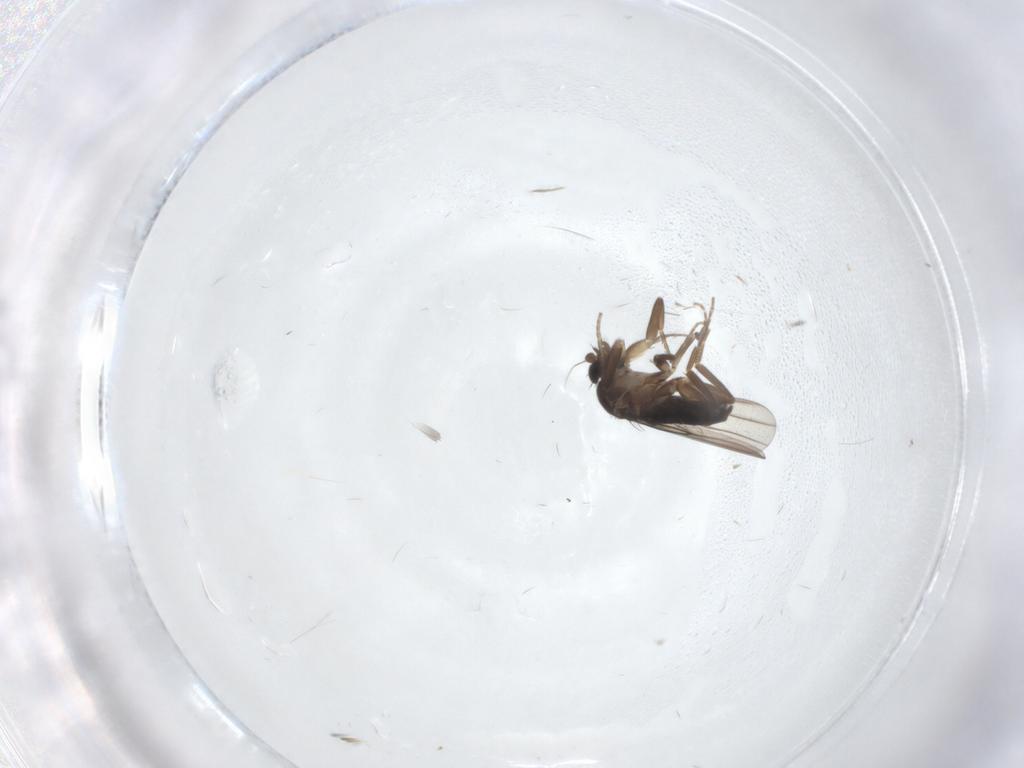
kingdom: Animalia
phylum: Arthropoda
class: Insecta
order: Diptera
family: Phoridae
